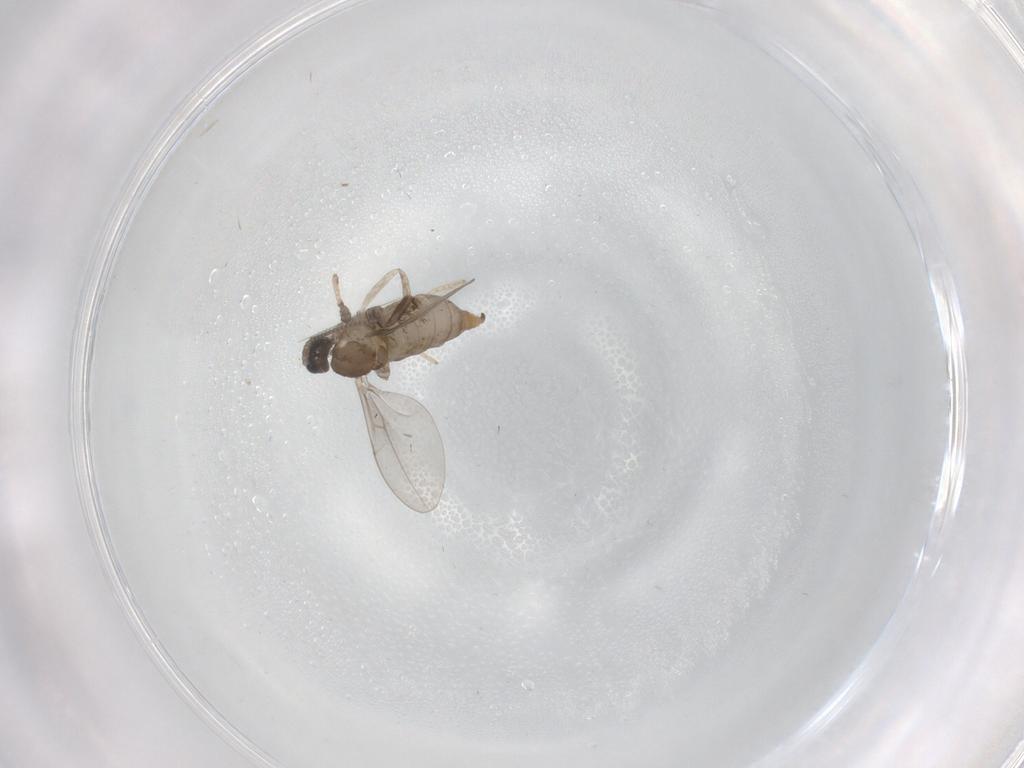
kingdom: Animalia
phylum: Arthropoda
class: Insecta
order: Diptera
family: Cecidomyiidae
